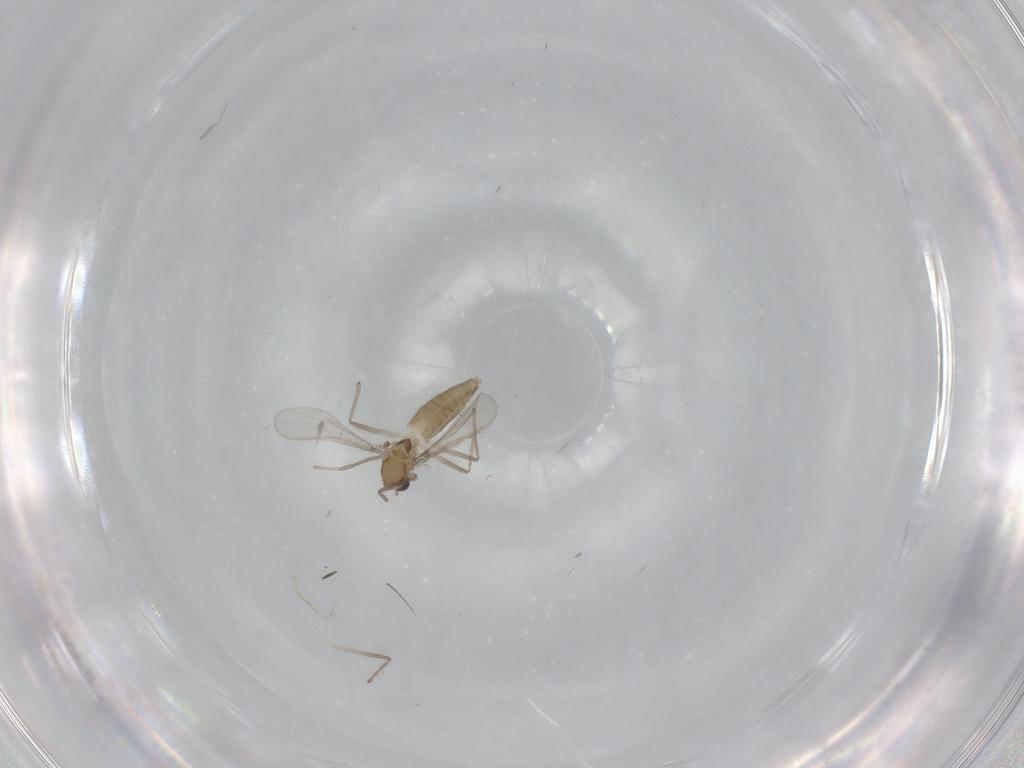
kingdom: Animalia
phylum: Arthropoda
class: Insecta
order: Diptera
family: Chironomidae
